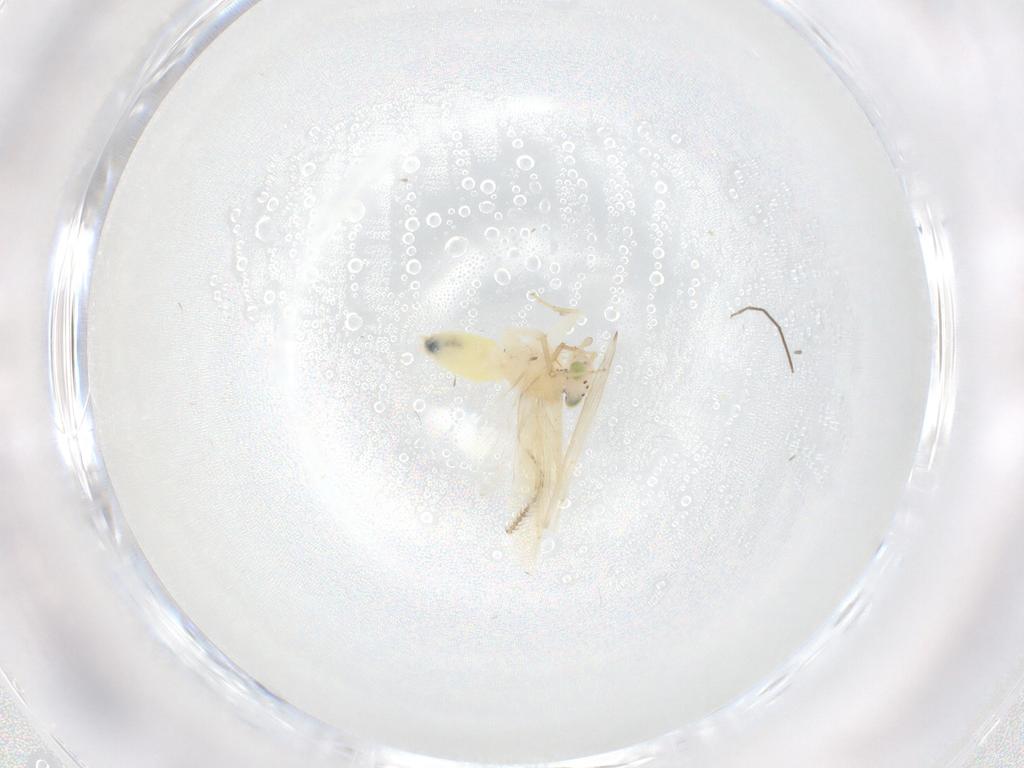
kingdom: Animalia
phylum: Arthropoda
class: Insecta
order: Psocodea
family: Lepidopsocidae
